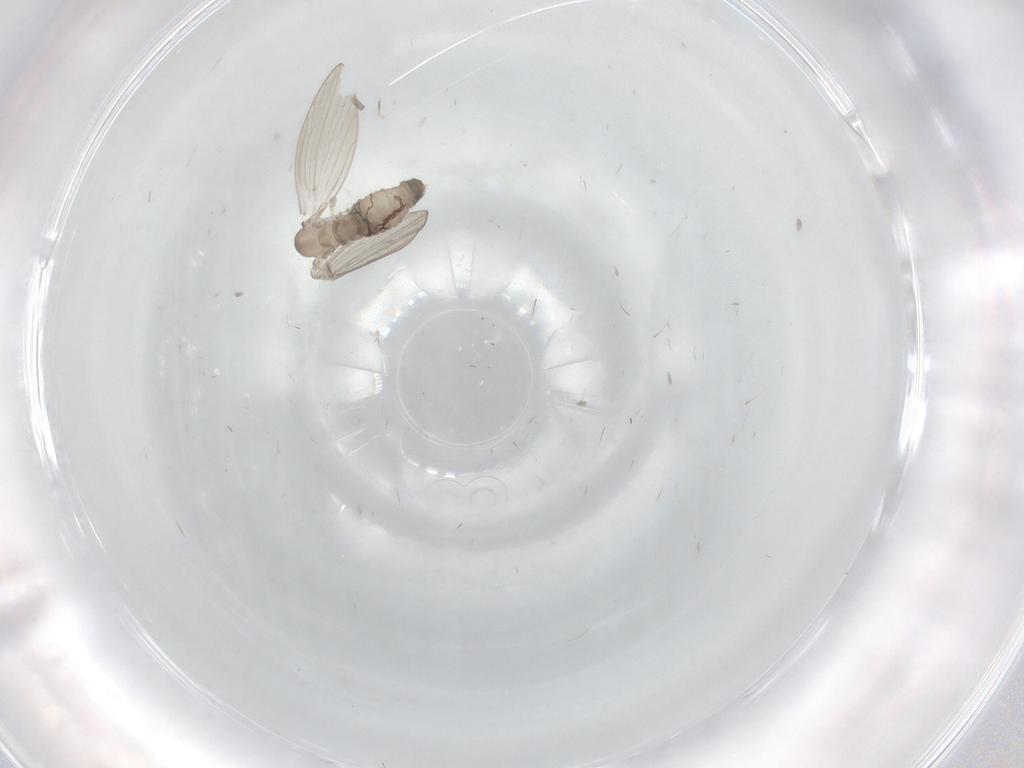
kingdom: Animalia
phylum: Arthropoda
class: Insecta
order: Diptera
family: Psychodidae
